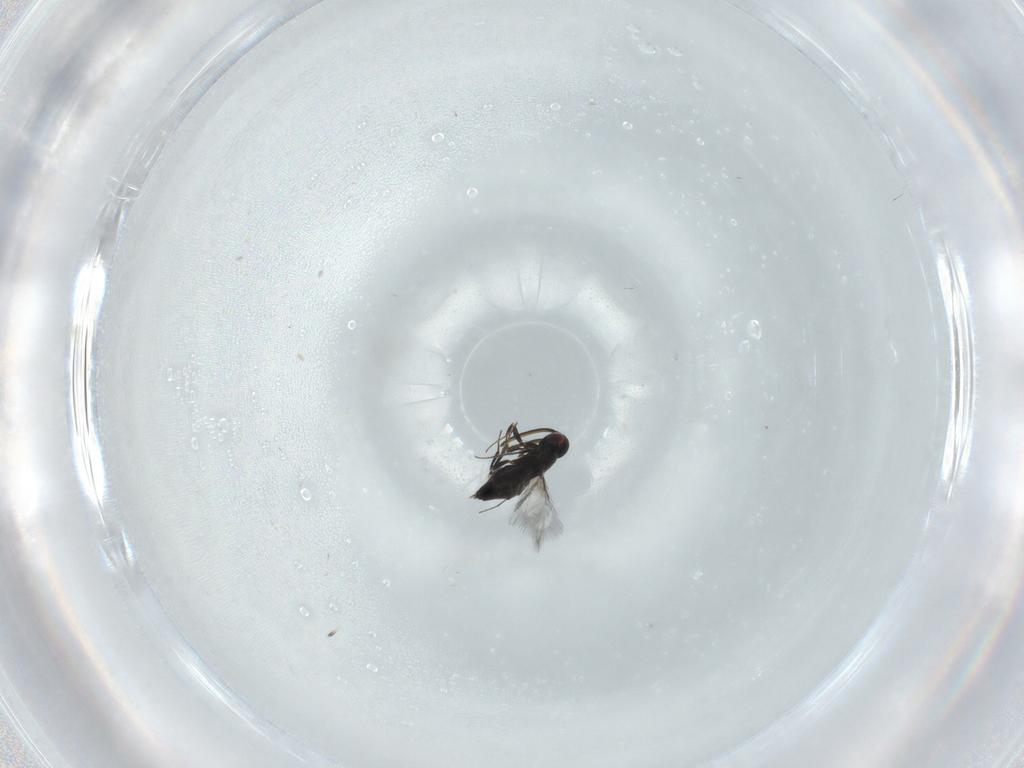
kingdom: Animalia
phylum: Arthropoda
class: Insecta
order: Hymenoptera
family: Signiphoridae
